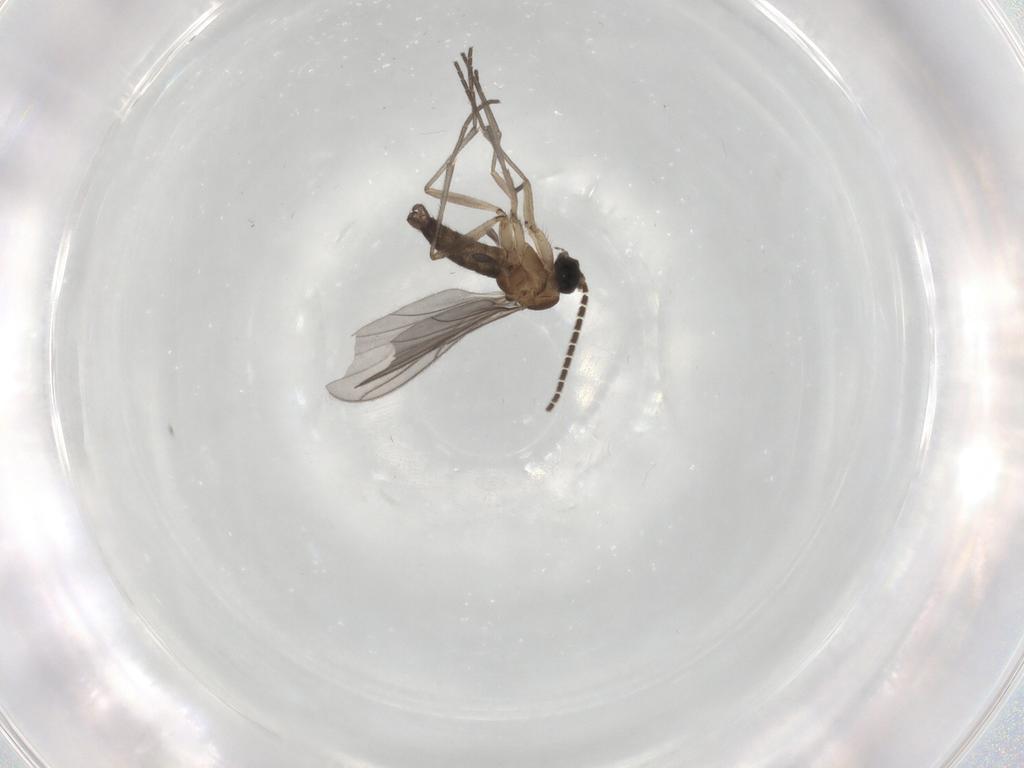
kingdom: Animalia
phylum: Arthropoda
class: Insecta
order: Diptera
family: Sciaridae
